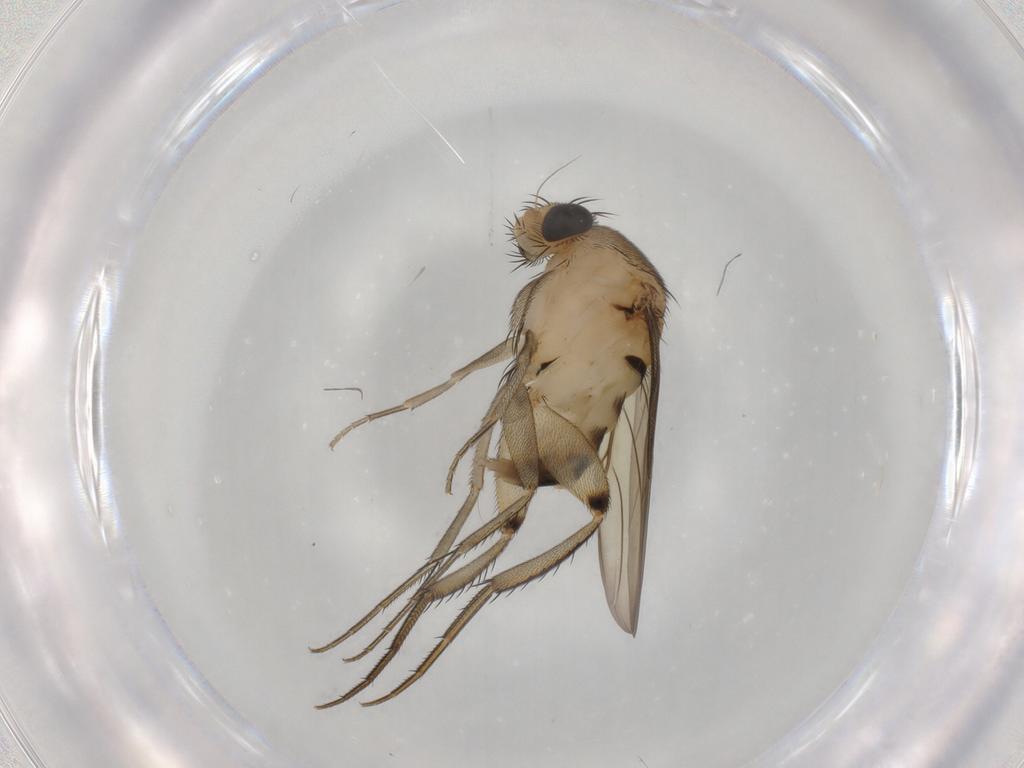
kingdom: Animalia
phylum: Arthropoda
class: Insecta
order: Diptera
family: Phoridae
